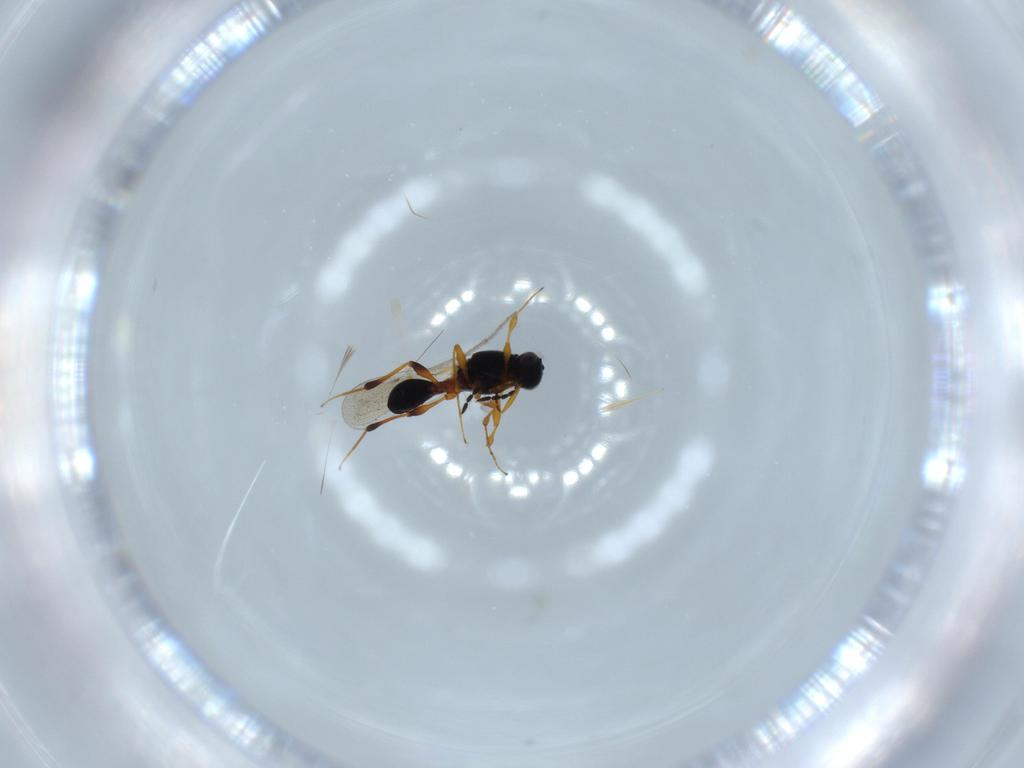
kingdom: Animalia
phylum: Arthropoda
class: Insecta
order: Hymenoptera
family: Platygastridae
